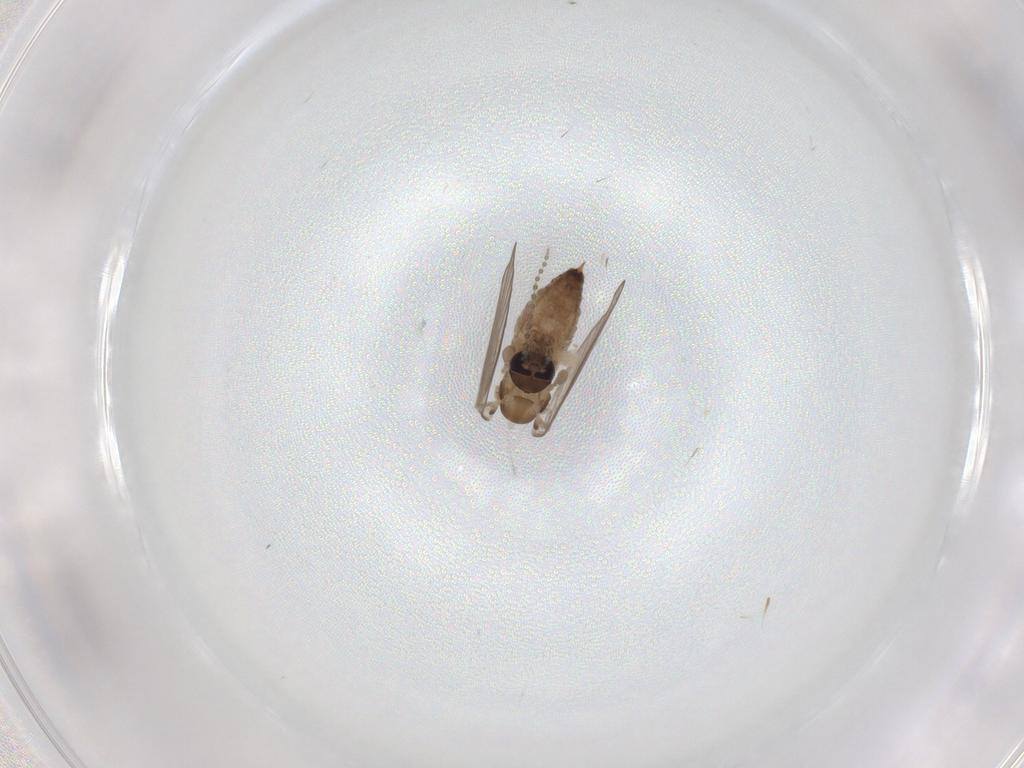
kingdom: Animalia
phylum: Arthropoda
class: Insecta
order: Diptera
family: Psychodidae
